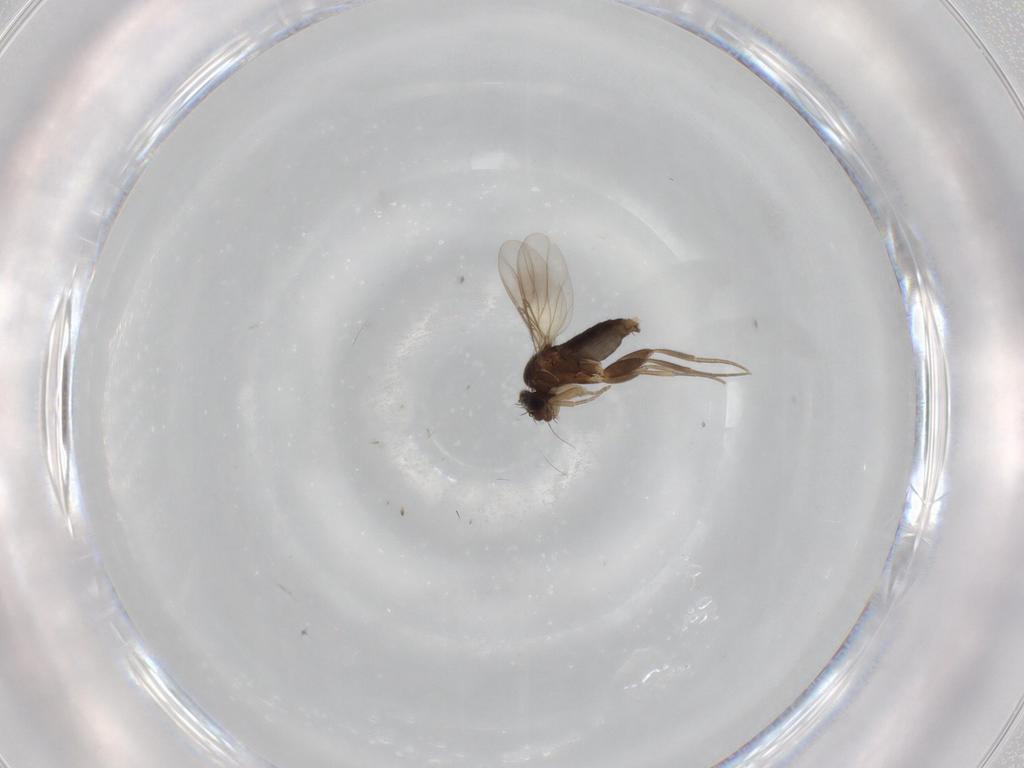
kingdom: Animalia
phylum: Arthropoda
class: Insecta
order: Diptera
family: Phoridae
